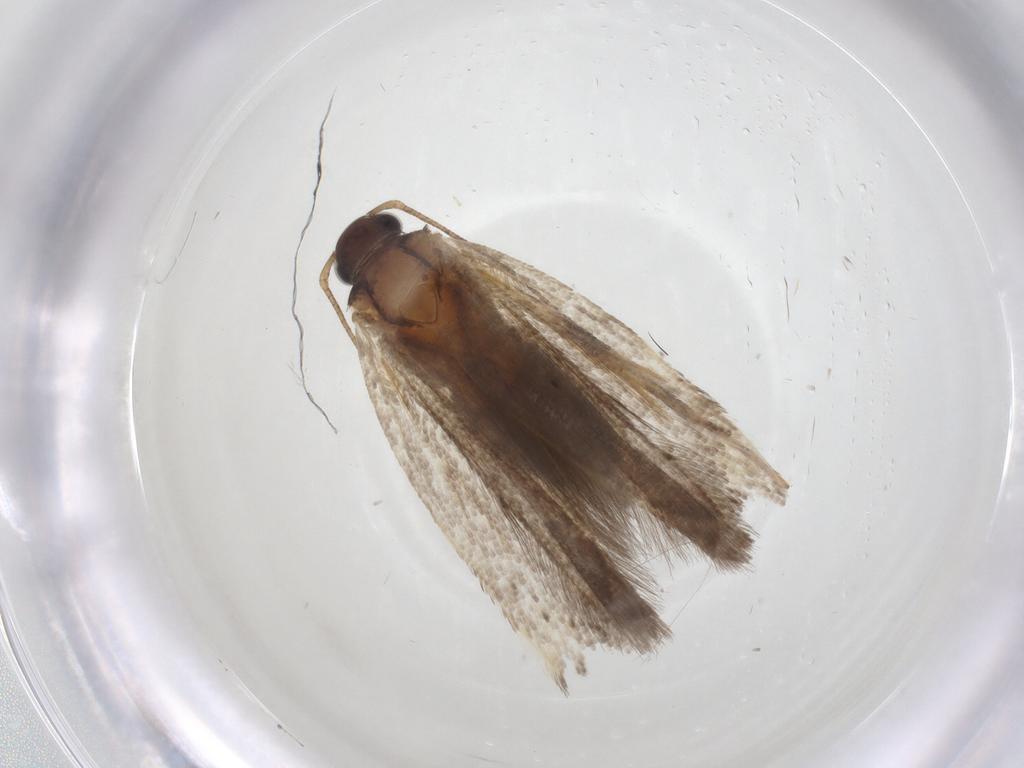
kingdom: Animalia
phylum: Arthropoda
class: Insecta
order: Lepidoptera
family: Gelechiidae
